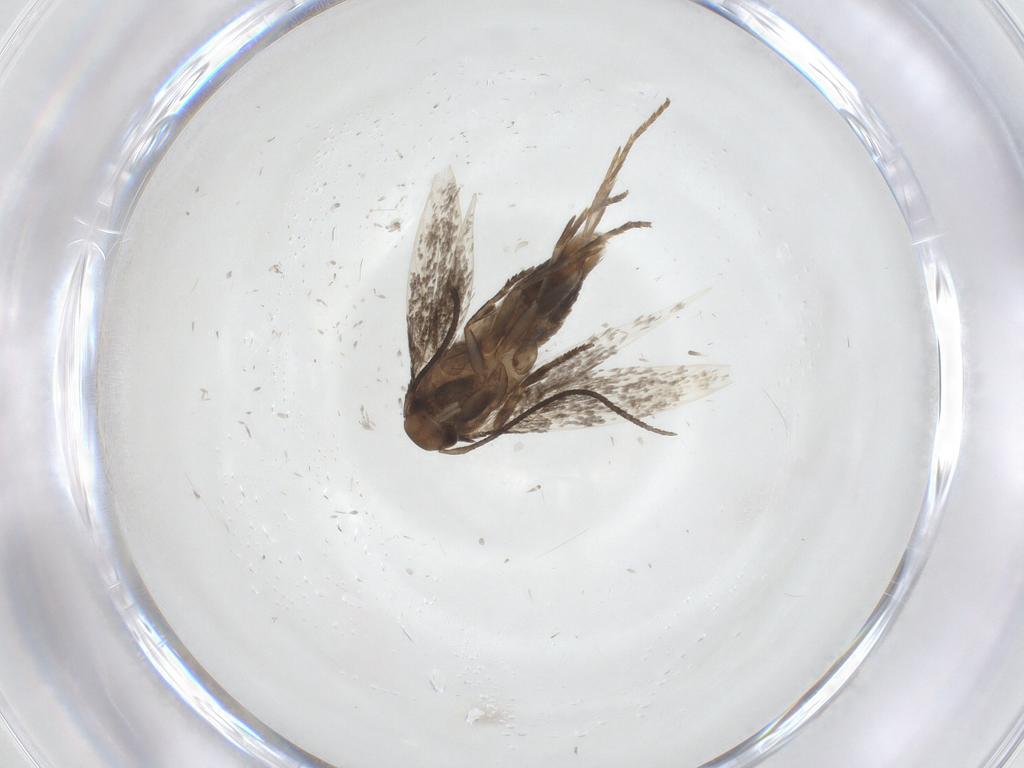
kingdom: Animalia
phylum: Arthropoda
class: Insecta
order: Lepidoptera
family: Elachistidae
